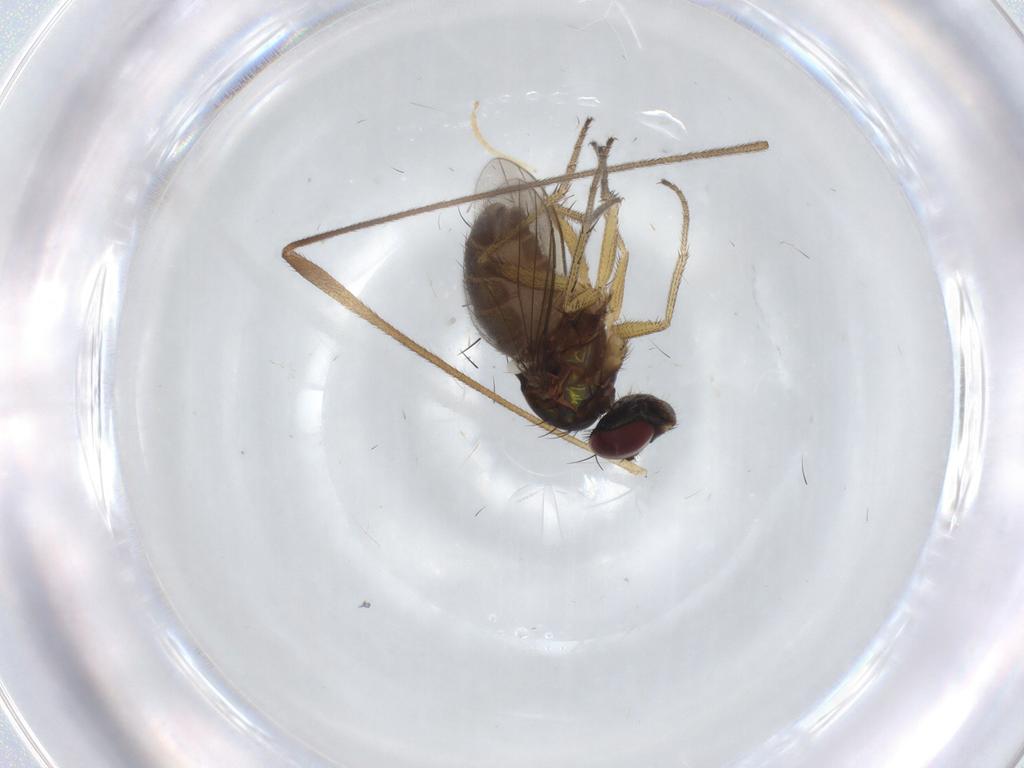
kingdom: Animalia
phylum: Arthropoda
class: Insecta
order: Diptera
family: Dolichopodidae
